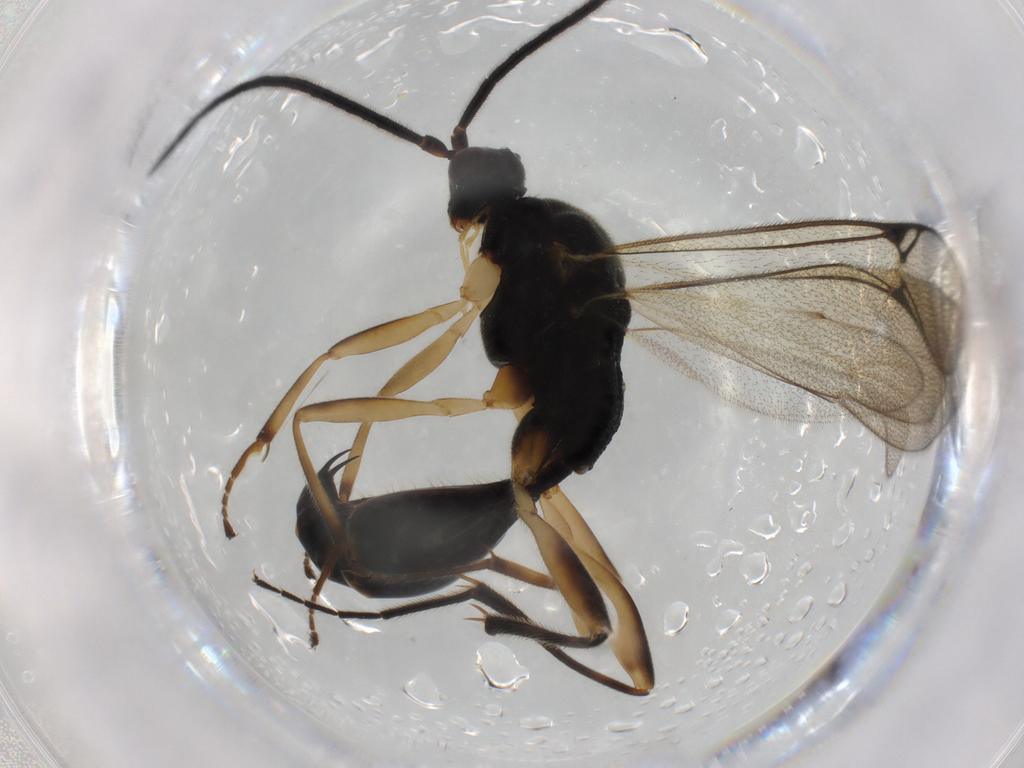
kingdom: Animalia
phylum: Arthropoda
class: Insecta
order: Hymenoptera
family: Proctotrupidae
